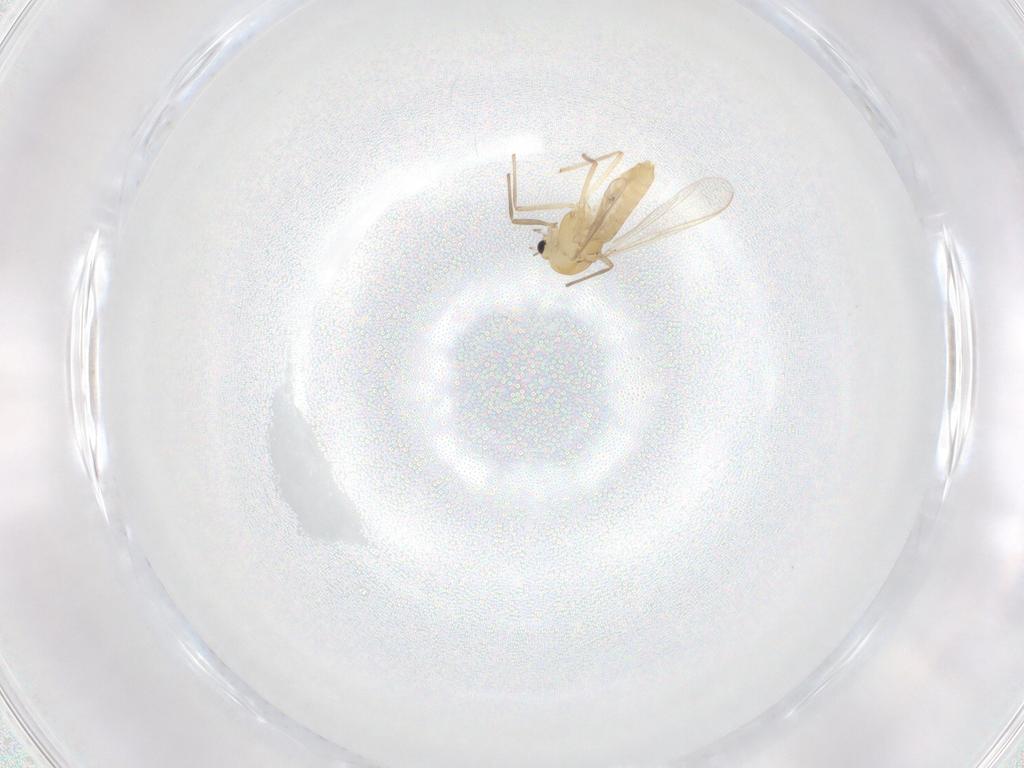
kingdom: Animalia
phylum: Arthropoda
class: Insecta
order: Diptera
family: Chironomidae
